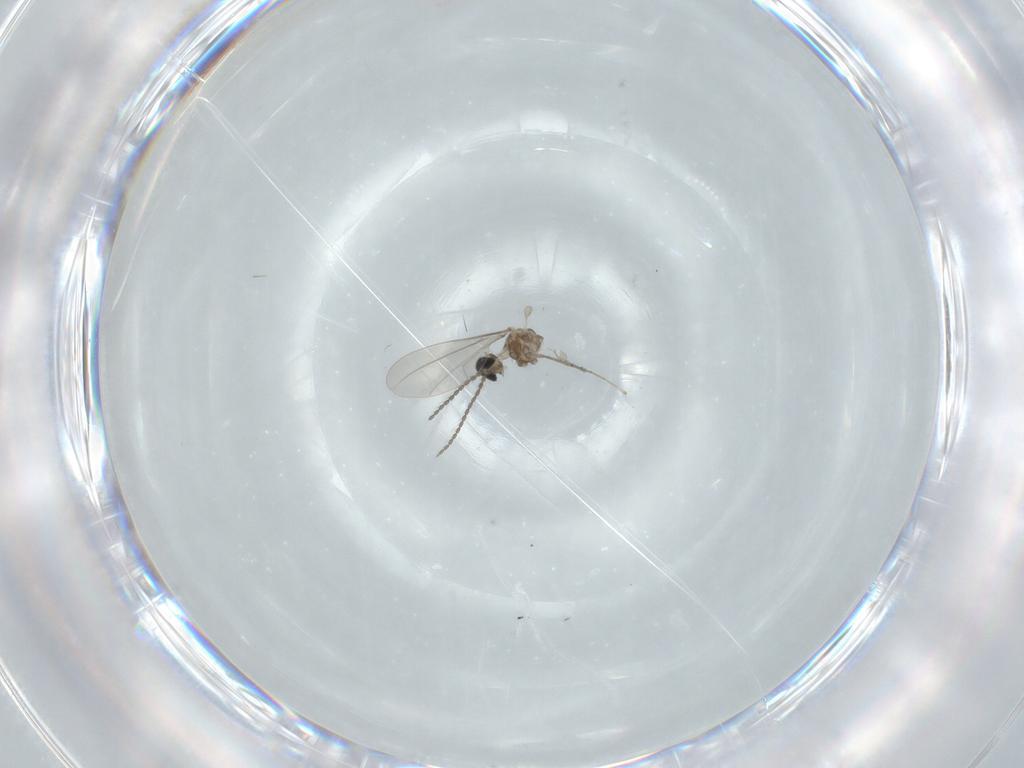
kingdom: Animalia
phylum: Arthropoda
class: Insecta
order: Diptera
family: Sciaridae
